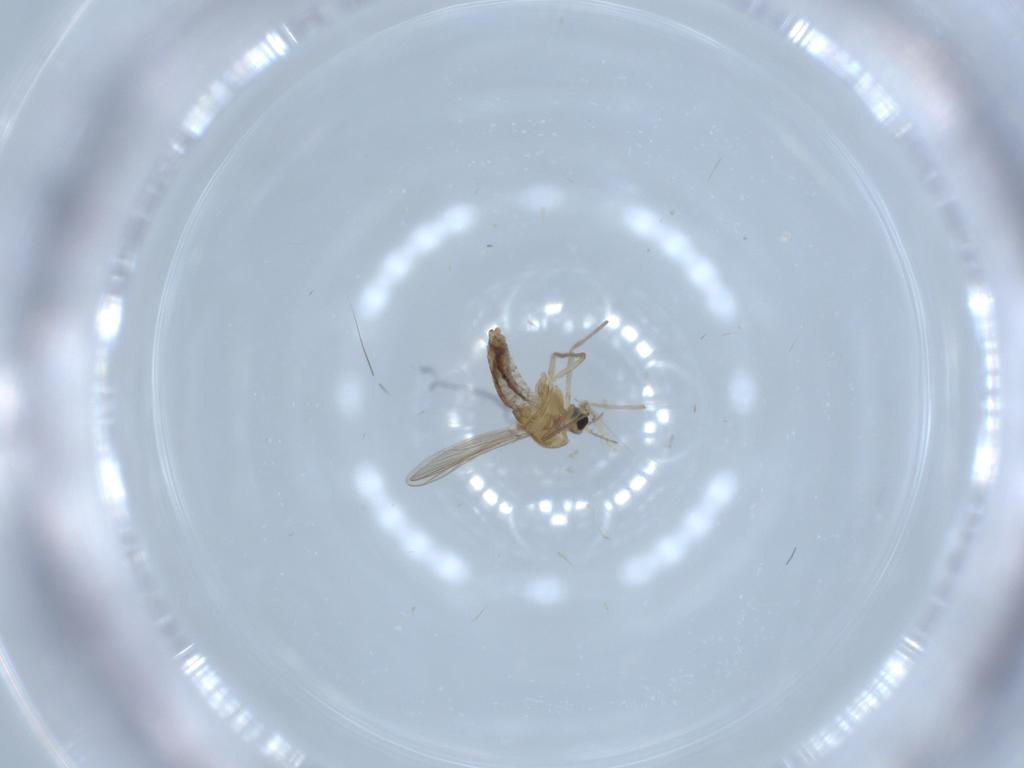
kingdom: Animalia
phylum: Arthropoda
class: Insecta
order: Diptera
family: Chironomidae
